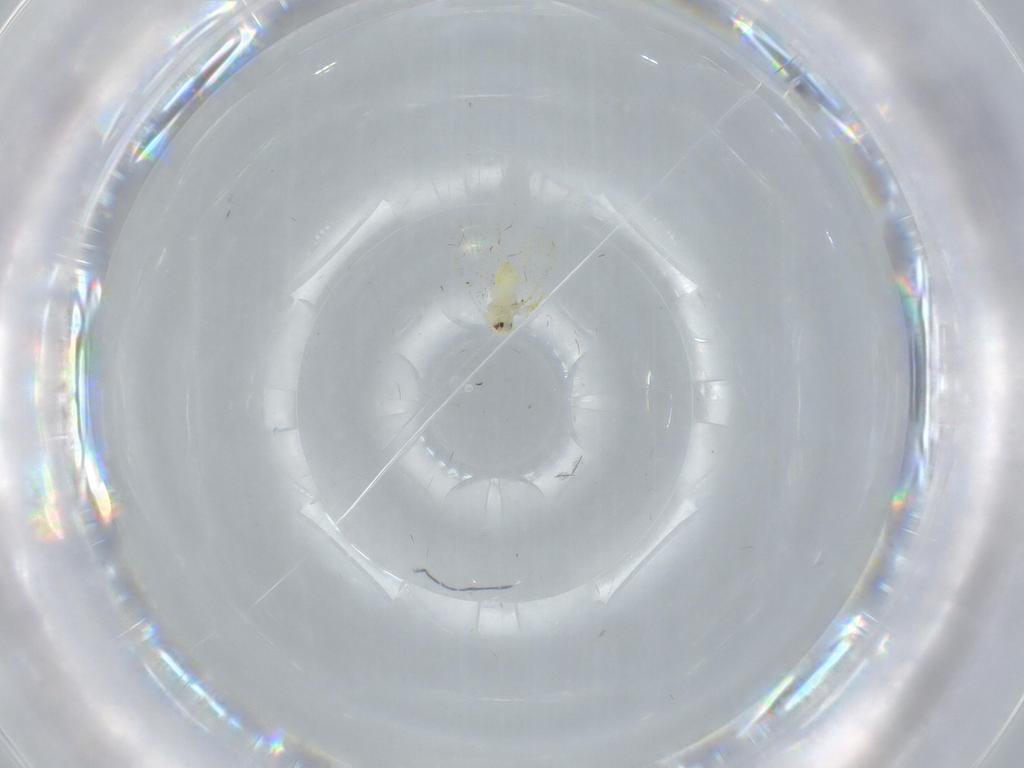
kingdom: Animalia
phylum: Arthropoda
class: Insecta
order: Hemiptera
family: Aleyrodidae
